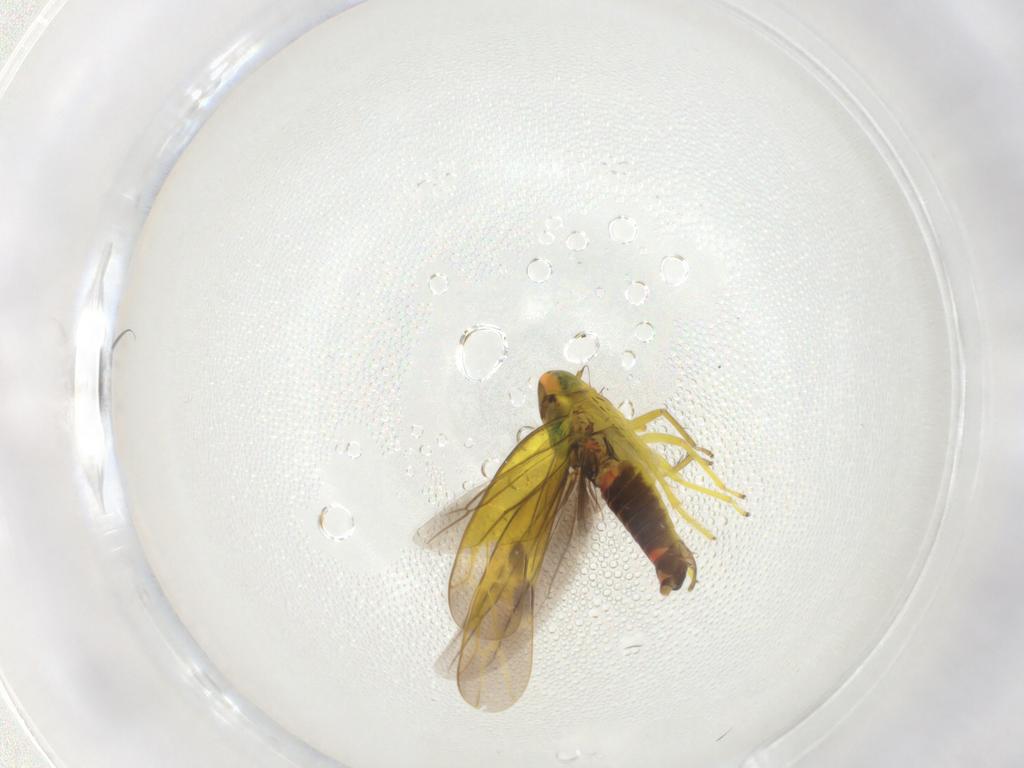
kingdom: Animalia
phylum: Arthropoda
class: Insecta
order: Hemiptera
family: Cicadellidae
